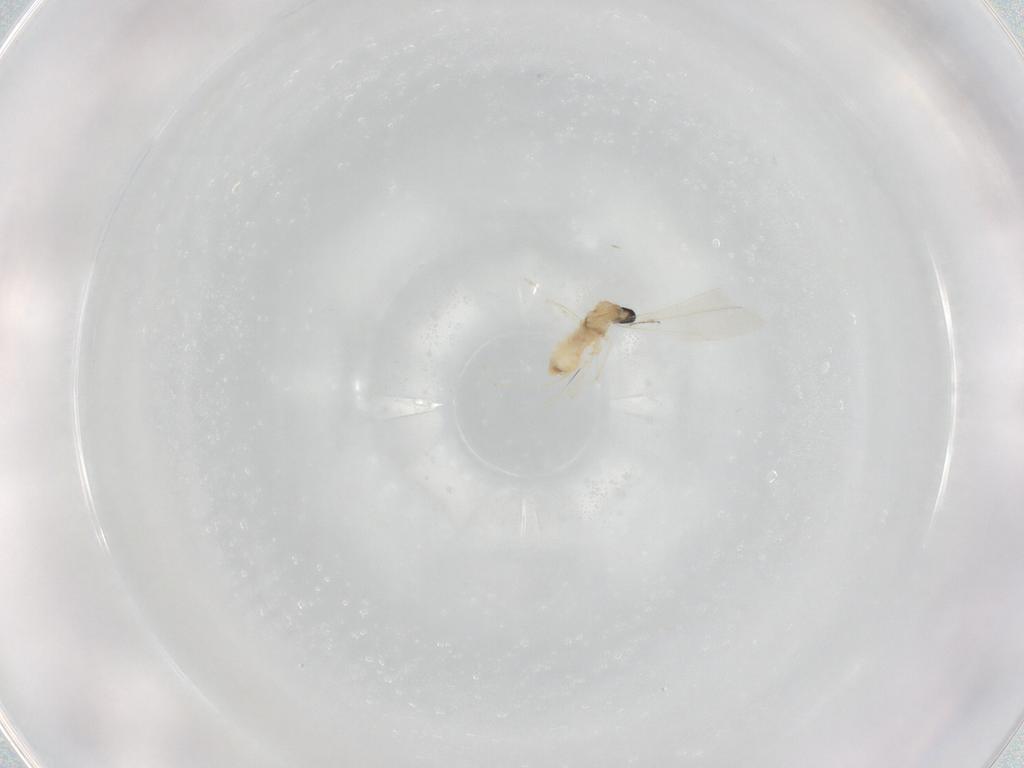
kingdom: Animalia
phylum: Arthropoda
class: Insecta
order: Diptera
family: Cecidomyiidae
